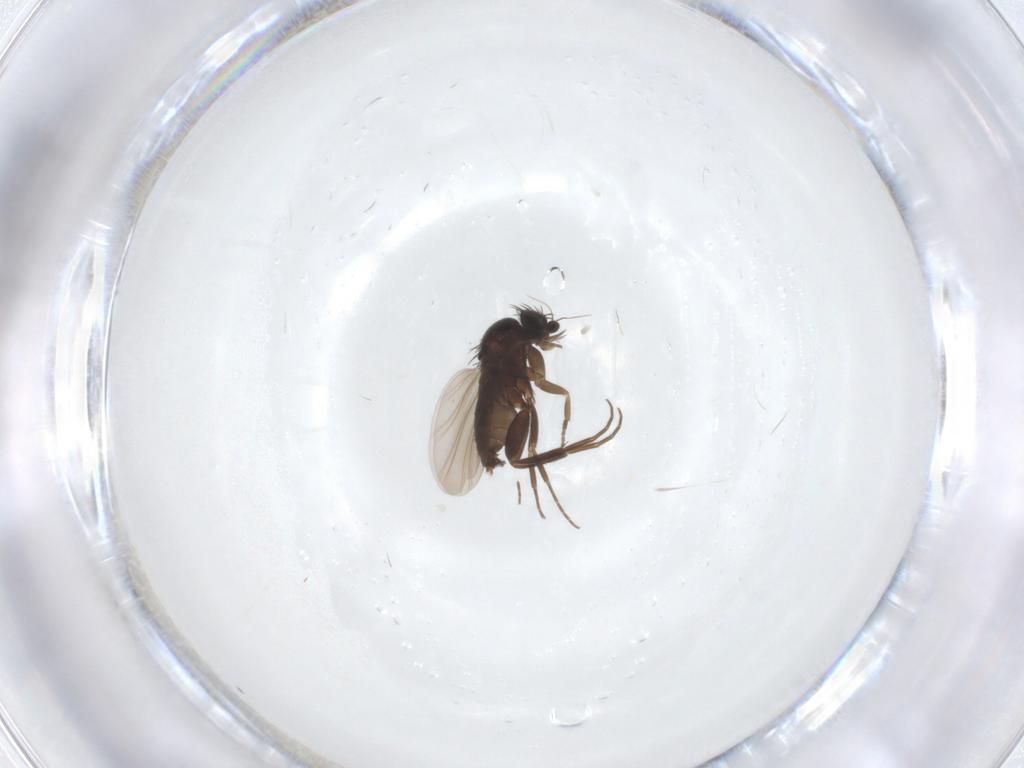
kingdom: Animalia
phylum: Arthropoda
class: Insecta
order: Diptera
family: Phoridae
